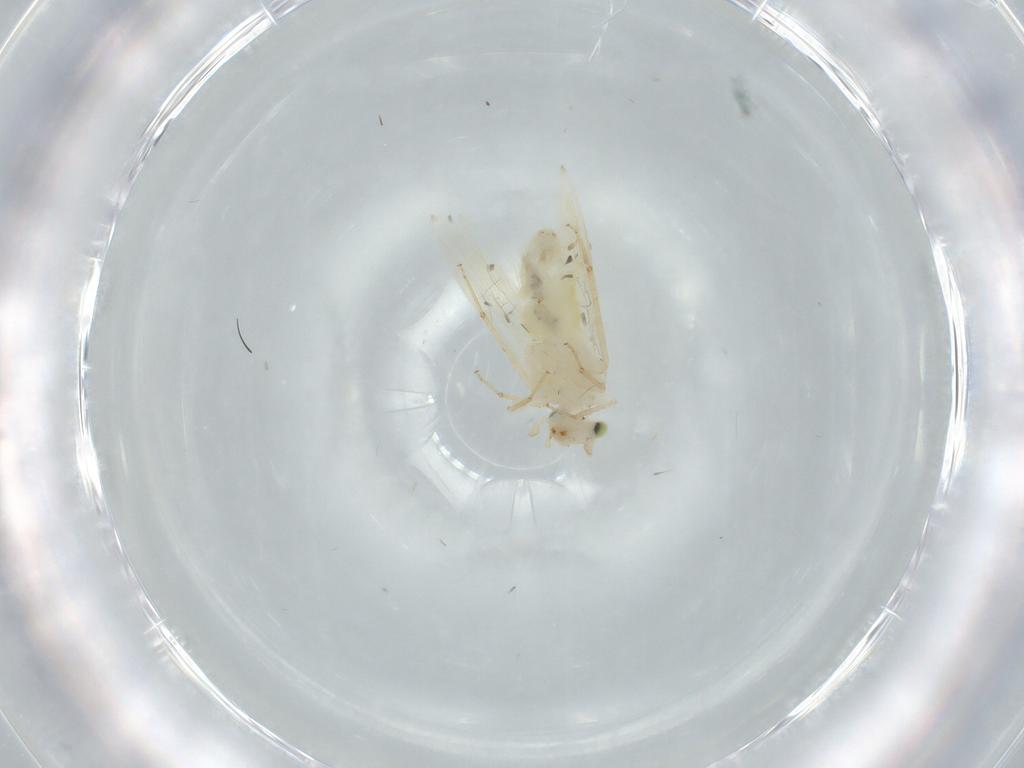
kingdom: Animalia
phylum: Arthropoda
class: Insecta
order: Psocodea
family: Lepidopsocidae
